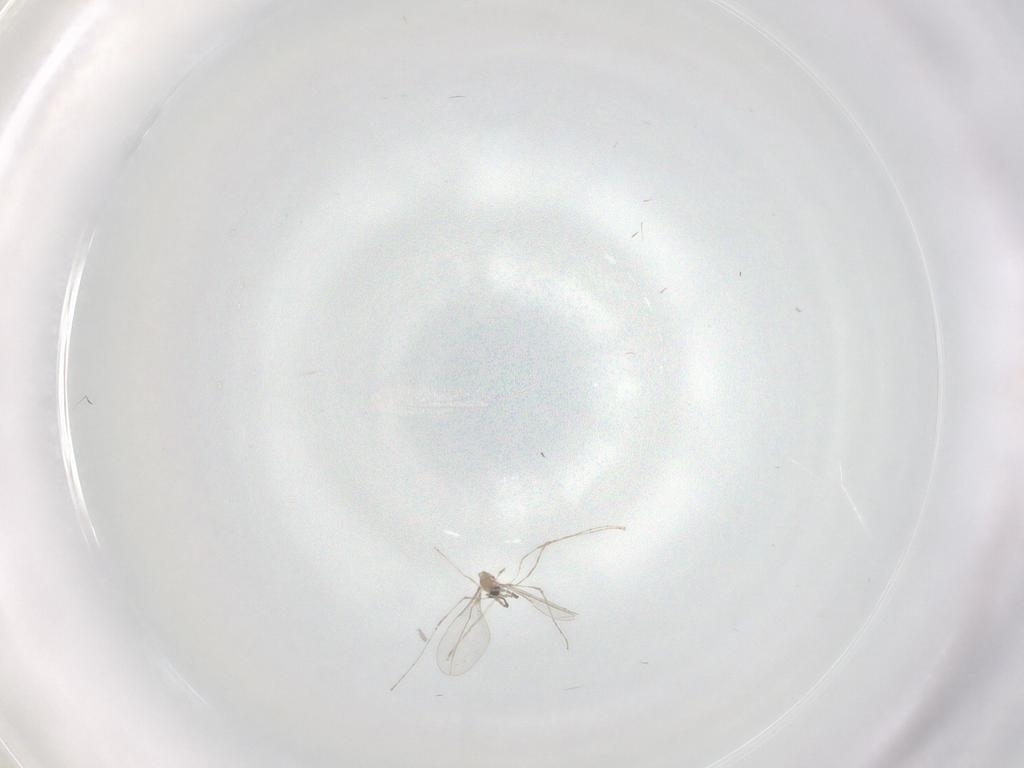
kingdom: Animalia
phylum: Arthropoda
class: Insecta
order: Diptera
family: Cecidomyiidae
